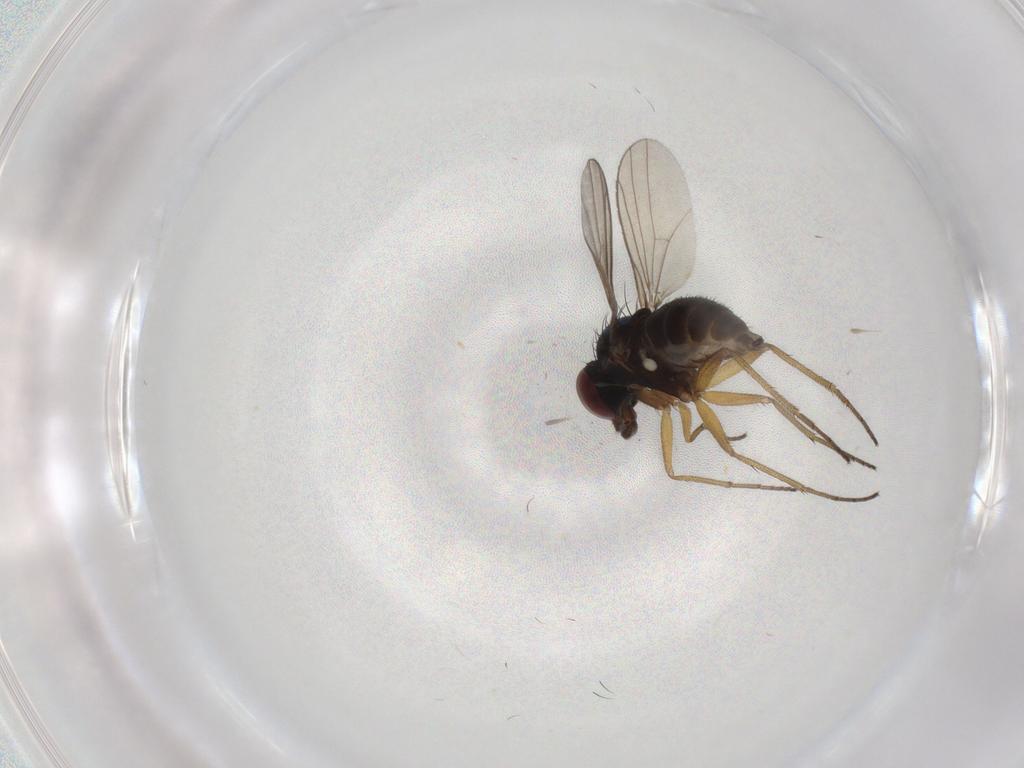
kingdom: Animalia
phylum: Arthropoda
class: Insecta
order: Diptera
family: Dolichopodidae
